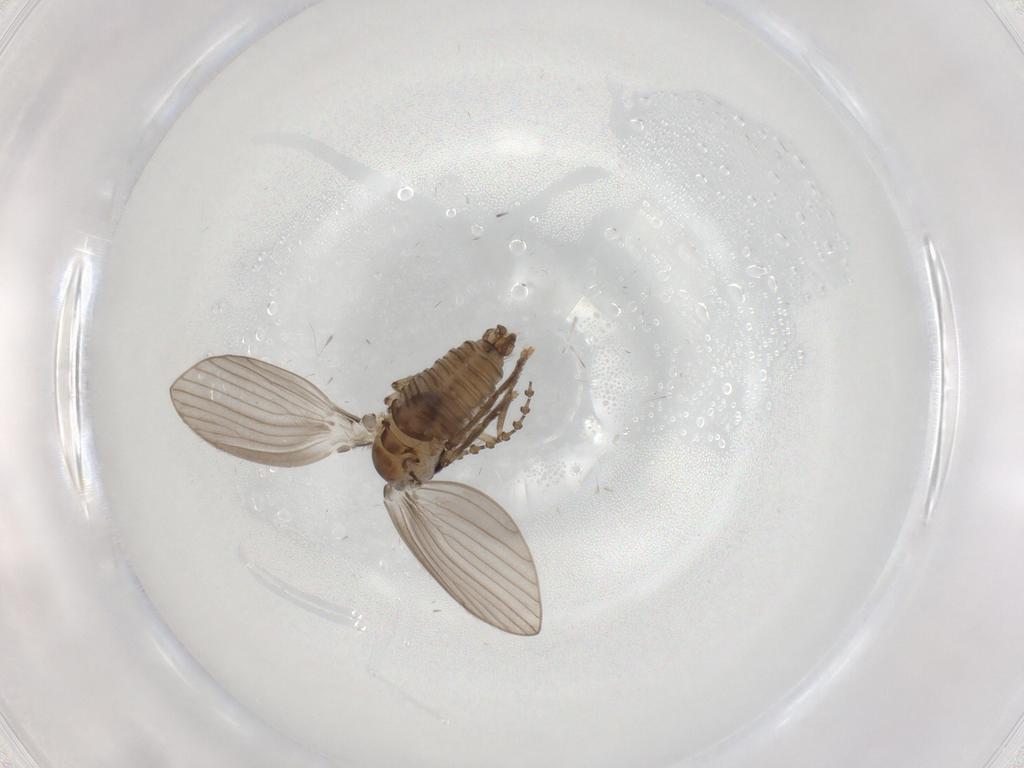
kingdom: Animalia
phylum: Arthropoda
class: Insecta
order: Diptera
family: Psychodidae
